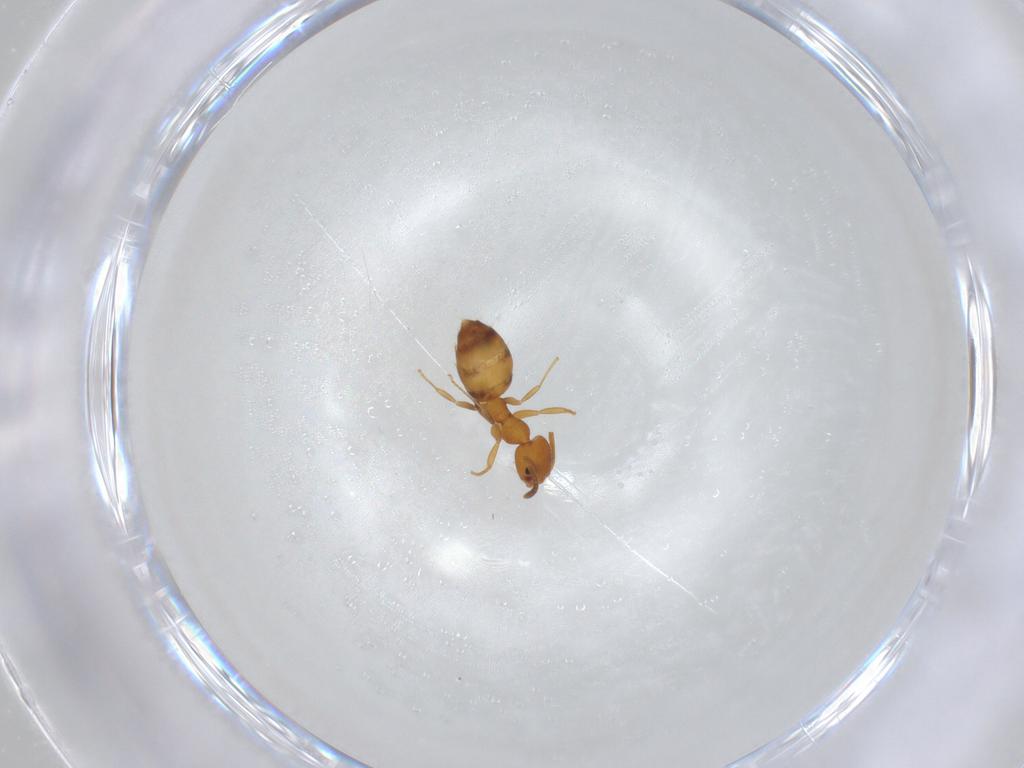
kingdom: Animalia
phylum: Arthropoda
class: Insecta
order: Hymenoptera
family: Formicidae
